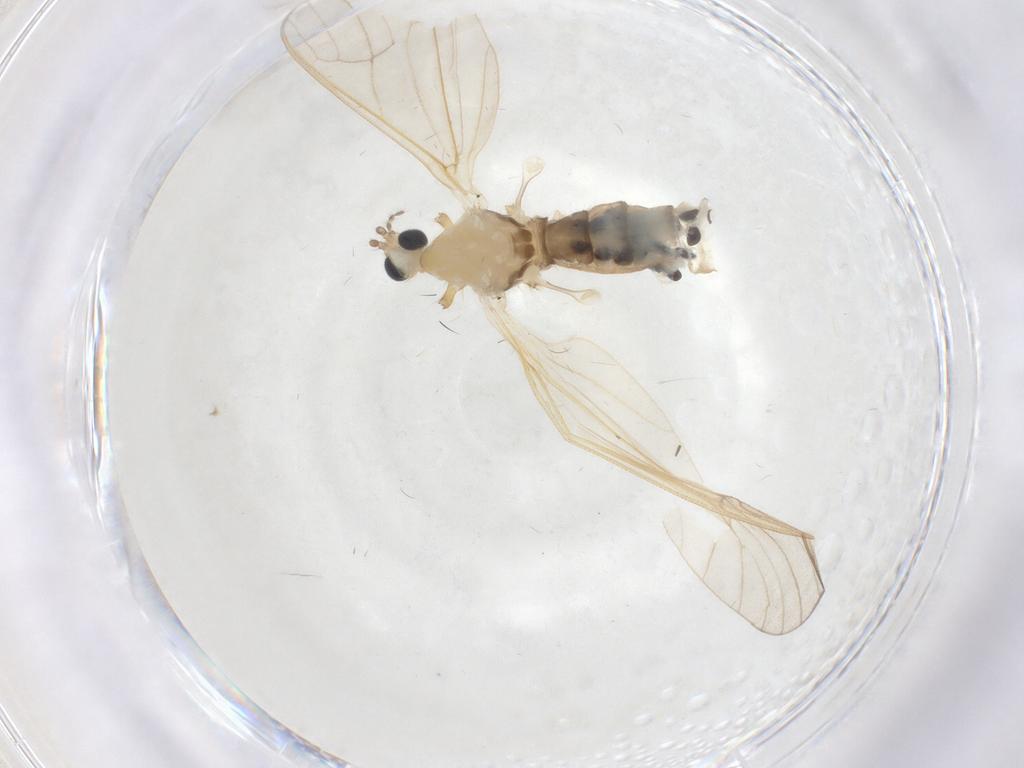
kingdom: Animalia
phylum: Arthropoda
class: Insecta
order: Diptera
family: Limoniidae
